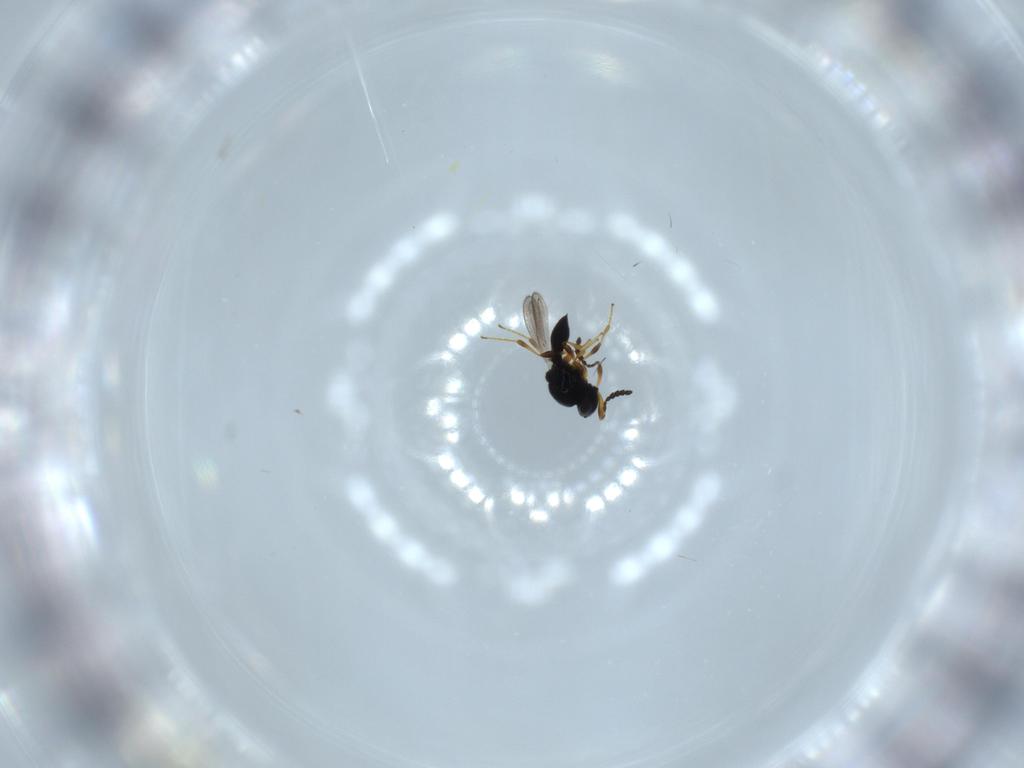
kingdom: Animalia
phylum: Arthropoda
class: Insecta
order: Hymenoptera
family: Platygastridae
